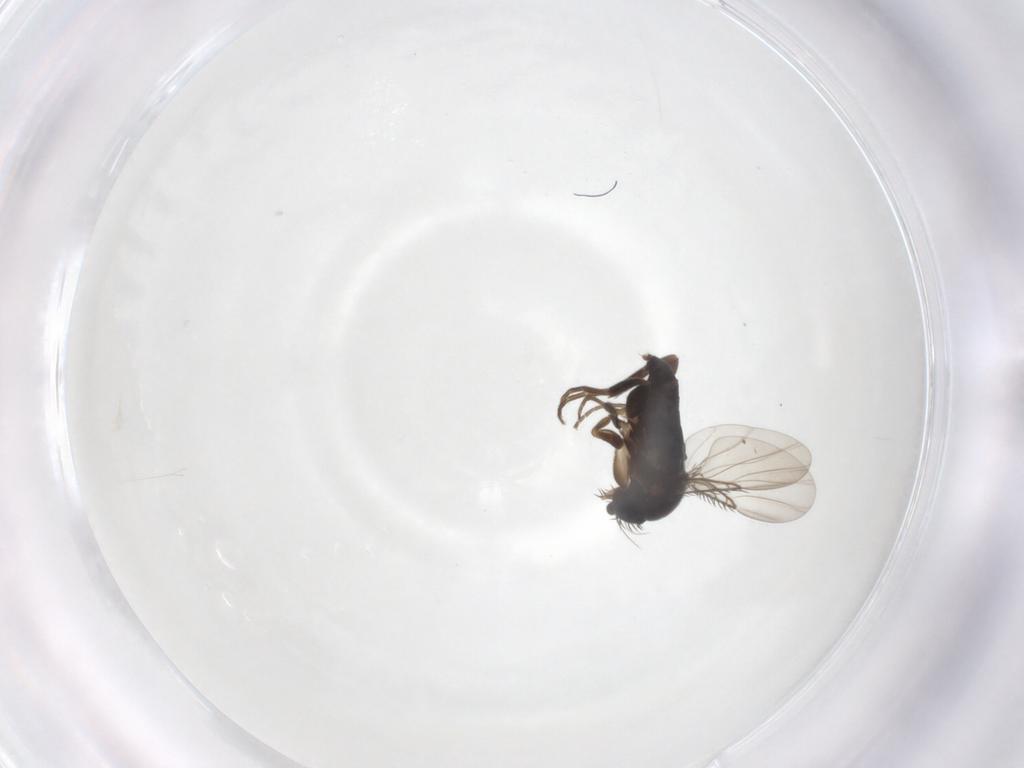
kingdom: Animalia
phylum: Arthropoda
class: Insecta
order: Diptera
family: Phoridae
